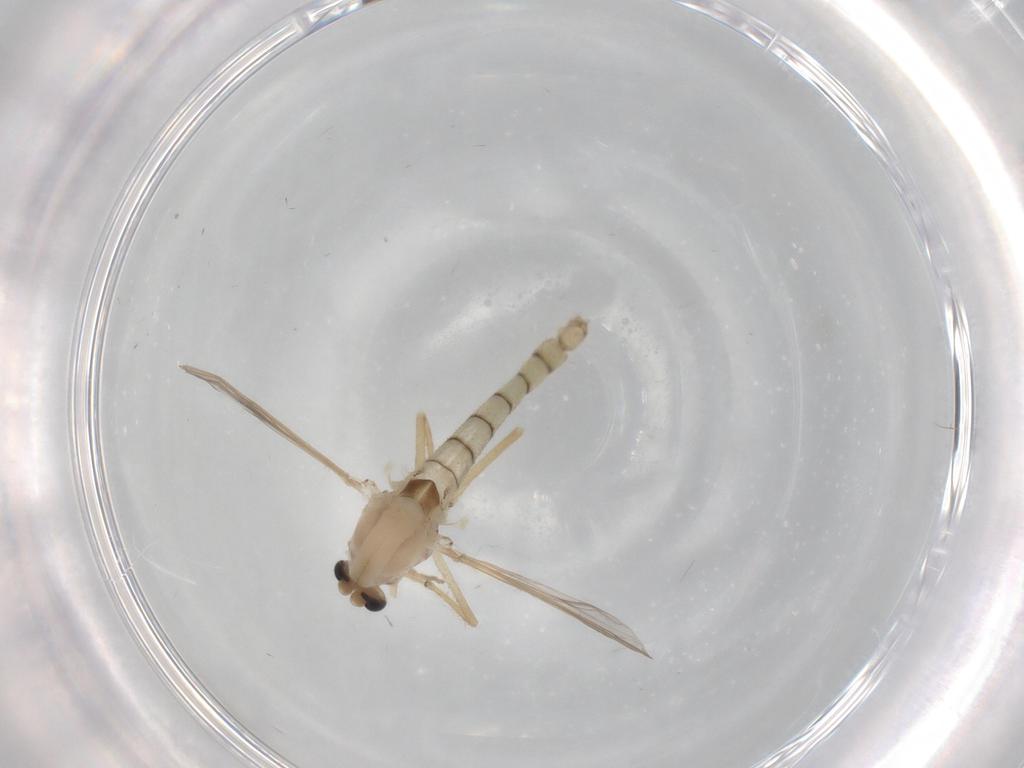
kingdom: Animalia
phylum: Arthropoda
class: Insecta
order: Diptera
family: Chironomidae
